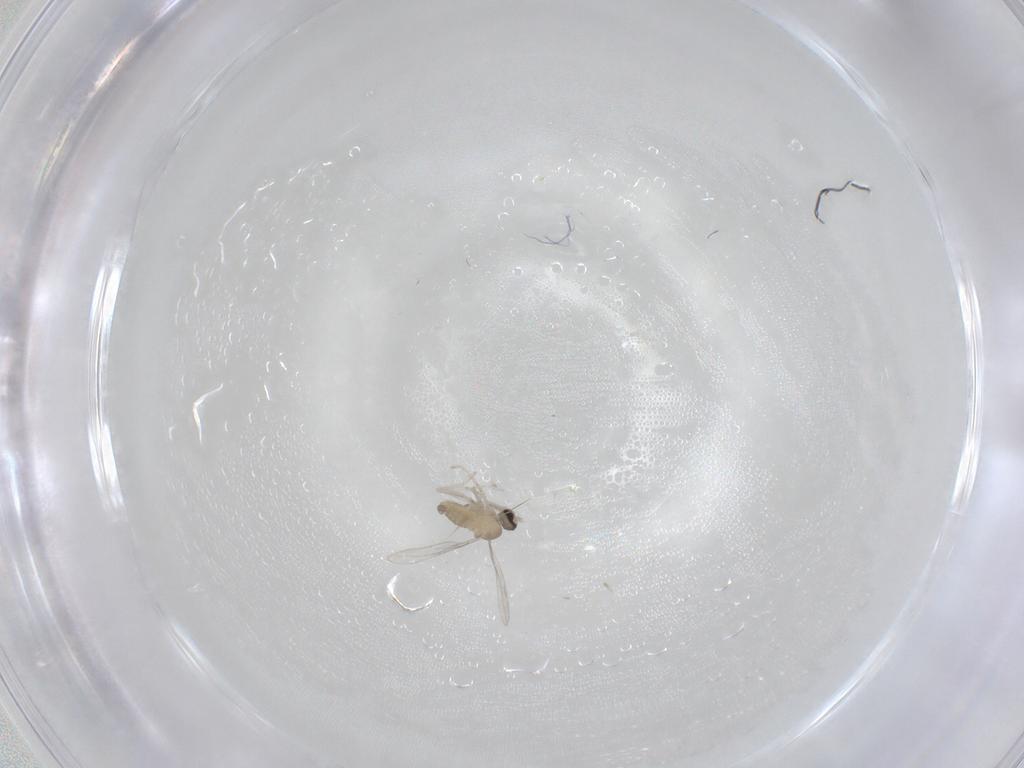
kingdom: Animalia
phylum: Arthropoda
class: Insecta
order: Diptera
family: Cecidomyiidae
